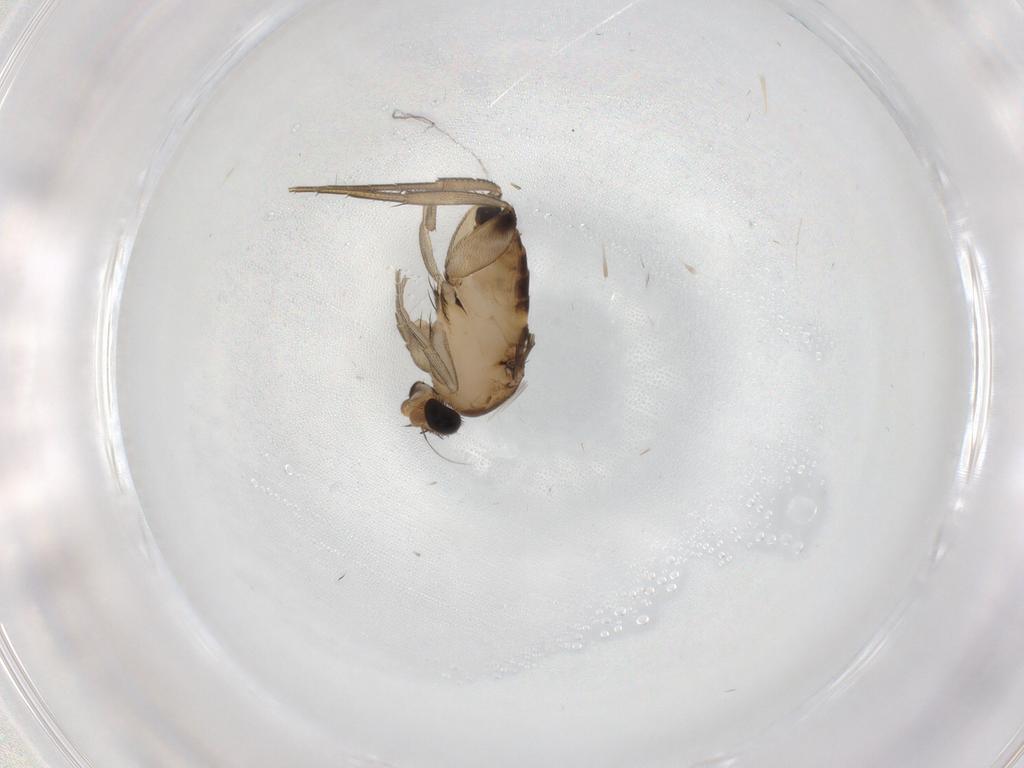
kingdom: Animalia
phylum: Arthropoda
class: Insecta
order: Diptera
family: Phoridae
